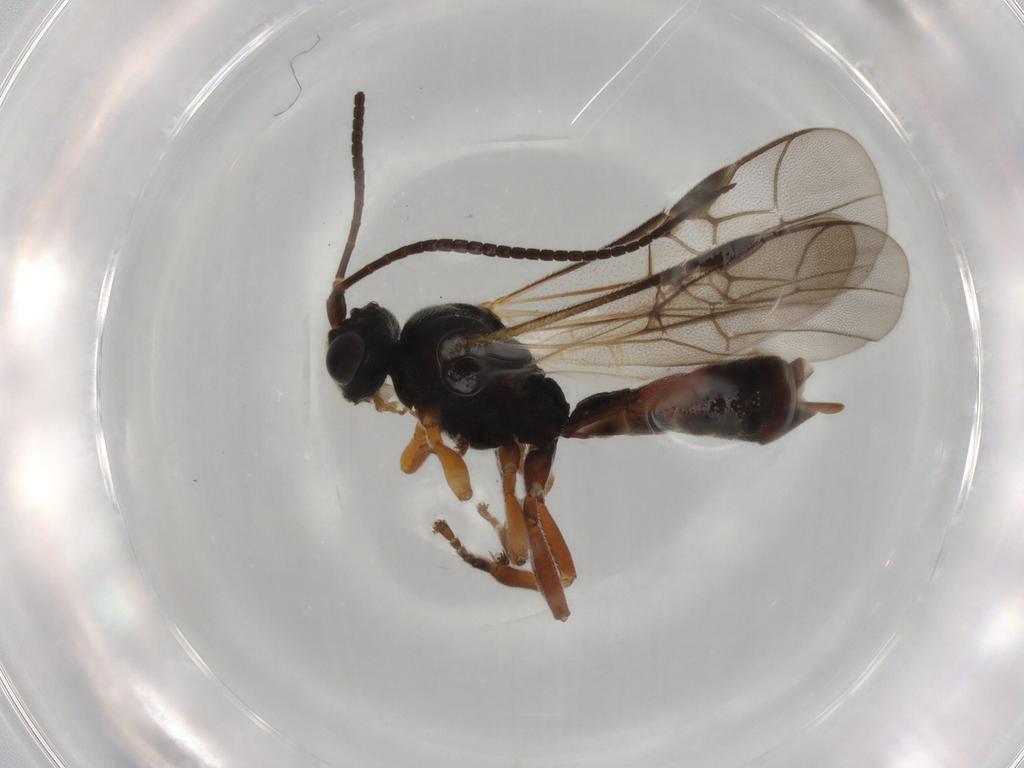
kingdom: Animalia
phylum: Arthropoda
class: Insecta
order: Hymenoptera
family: Braconidae
